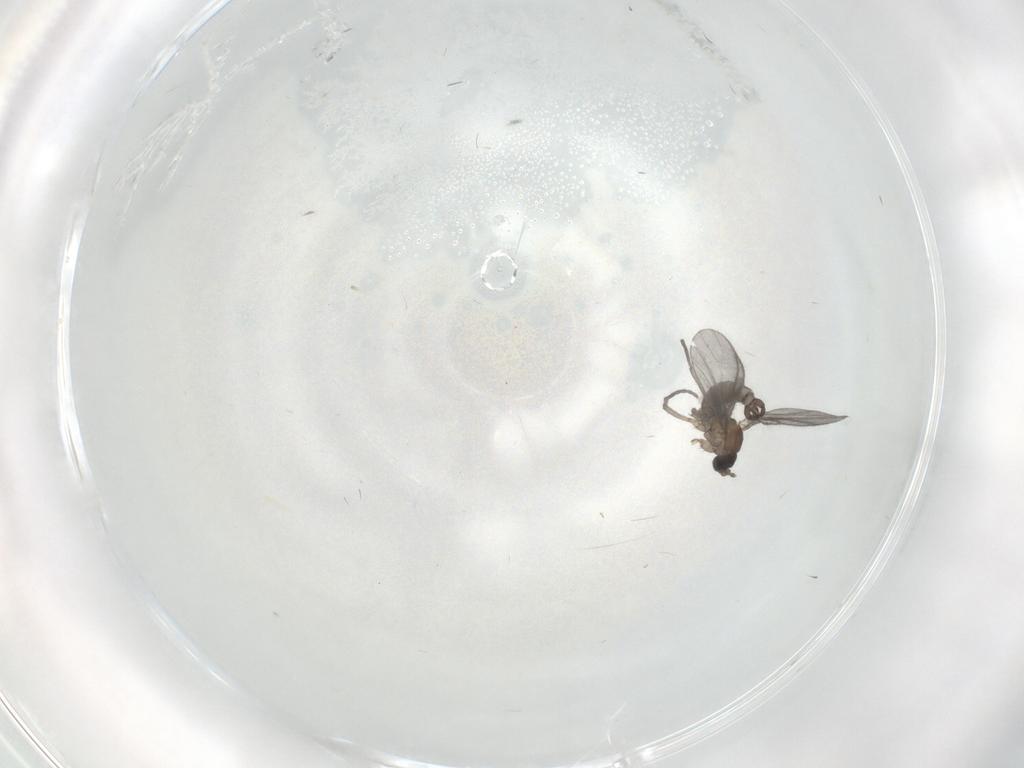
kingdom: Animalia
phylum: Arthropoda
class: Insecta
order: Diptera
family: Sciaridae
